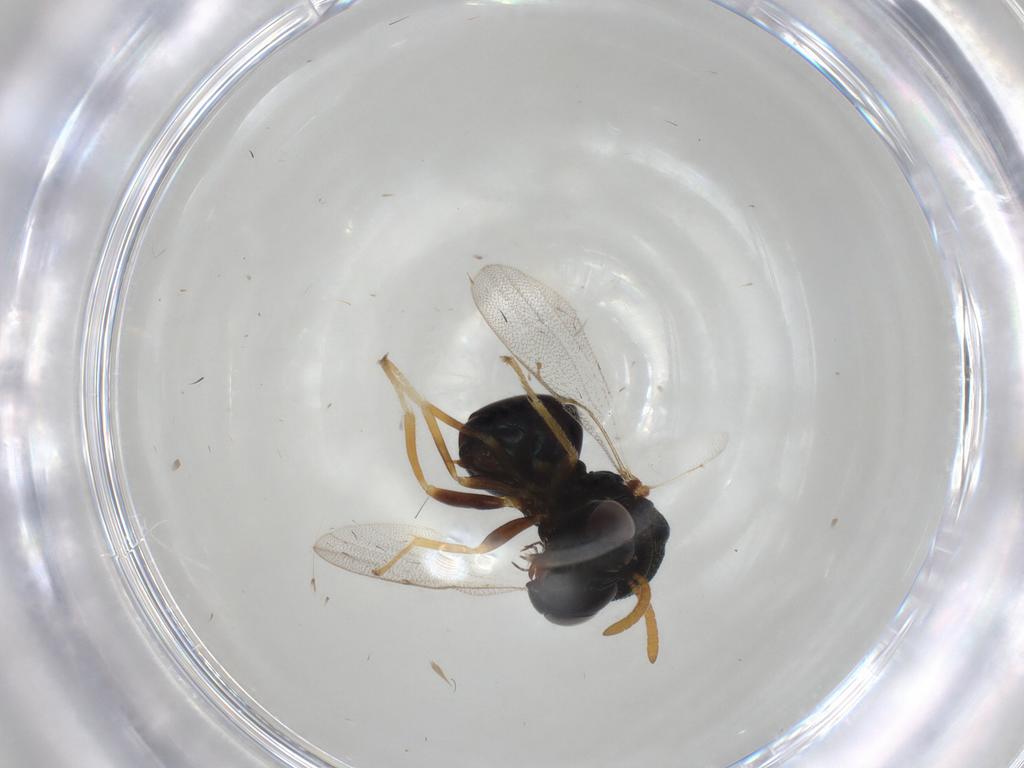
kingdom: Animalia
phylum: Arthropoda
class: Insecta
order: Hymenoptera
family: Perilampidae
